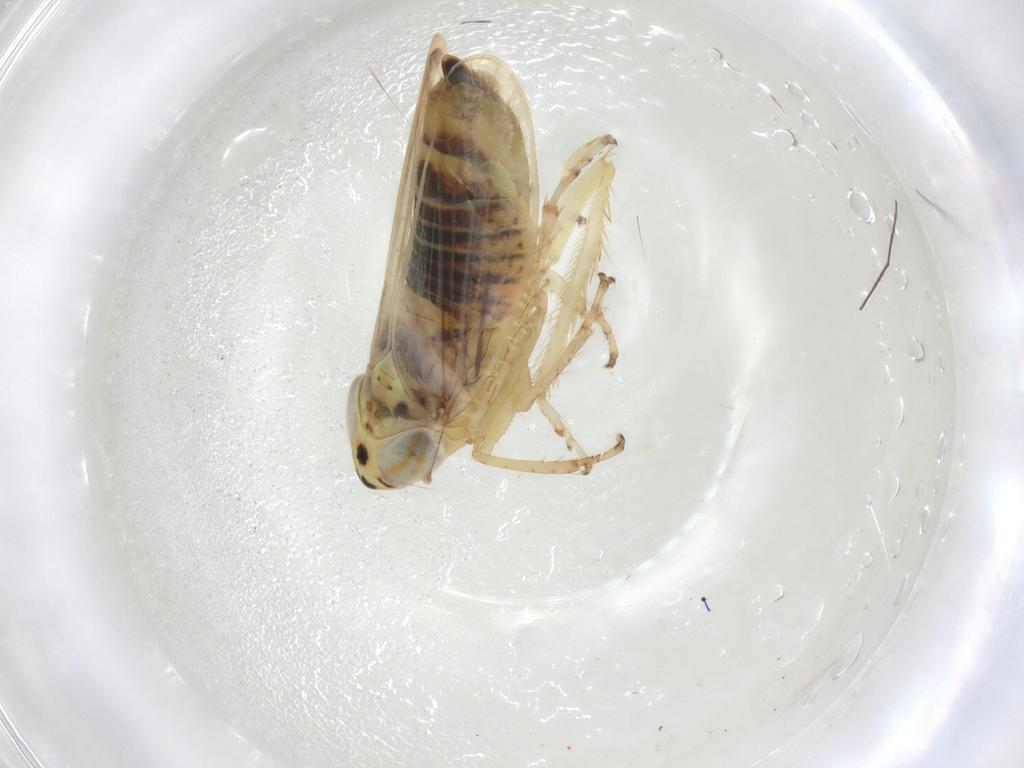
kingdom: Animalia
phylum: Arthropoda
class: Insecta
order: Hemiptera
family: Cicadellidae
